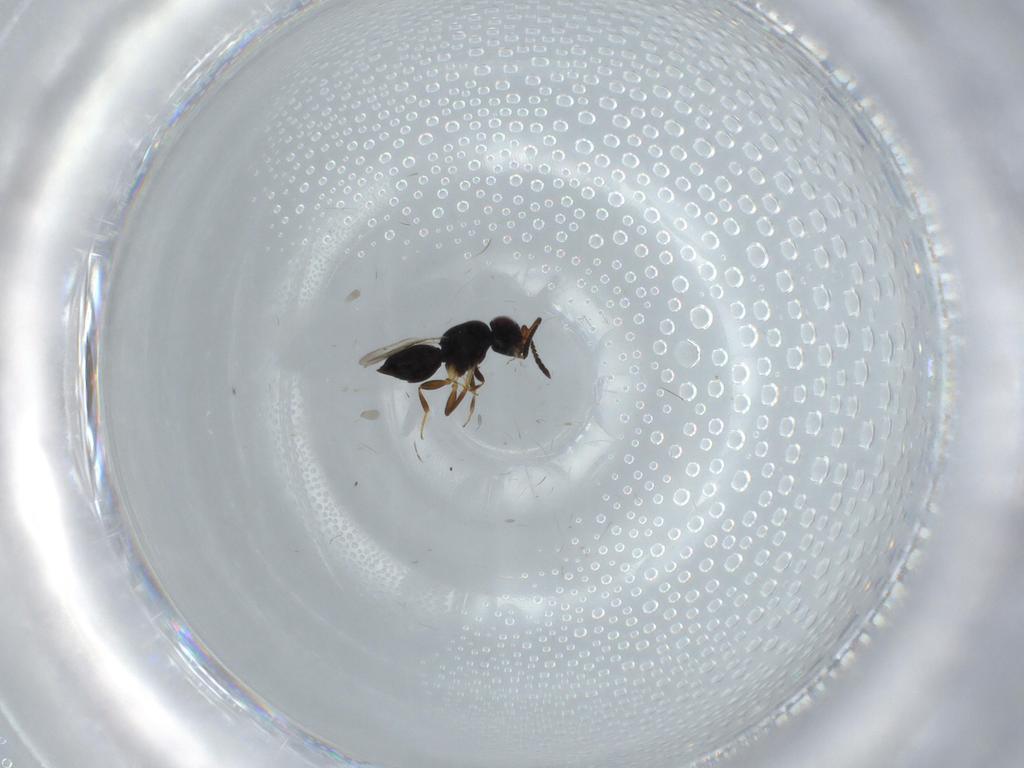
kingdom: Animalia
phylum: Arthropoda
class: Insecta
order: Hymenoptera
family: Ceraphronidae
